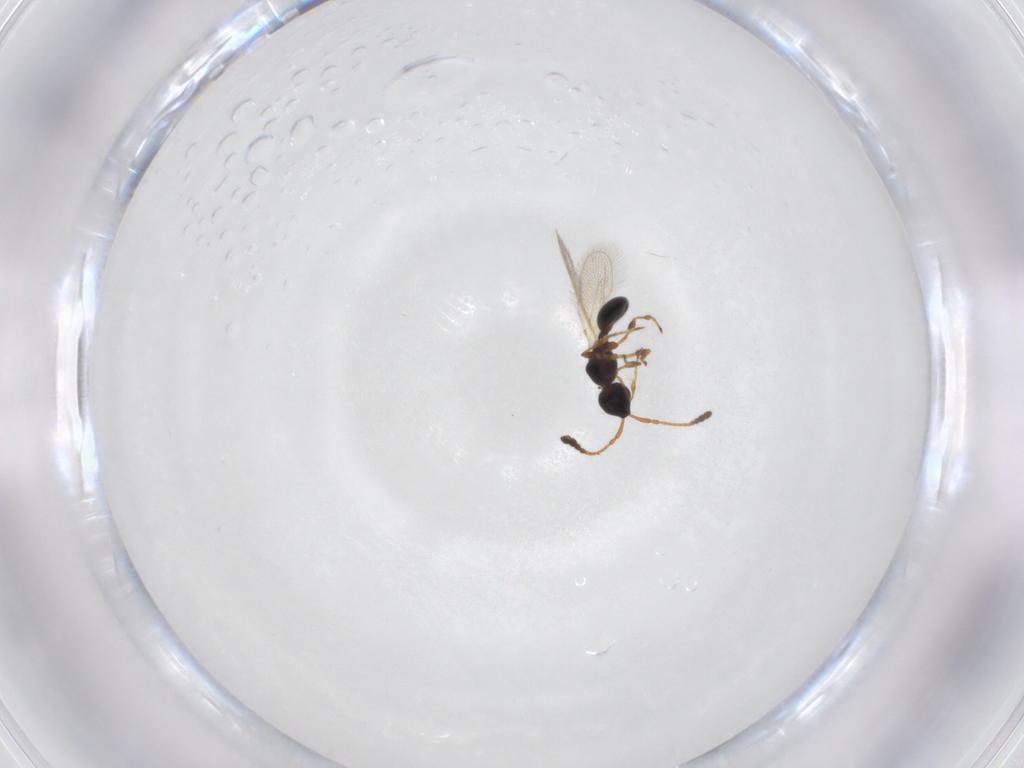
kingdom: Animalia
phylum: Arthropoda
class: Insecta
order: Hymenoptera
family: Diapriidae
